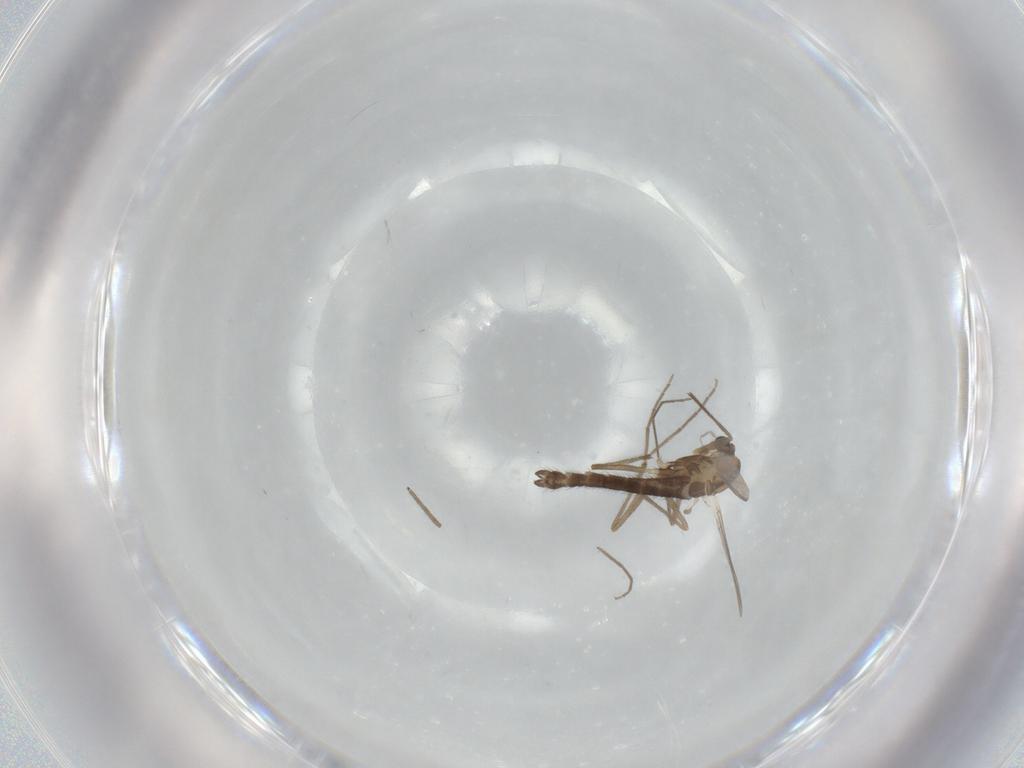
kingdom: Animalia
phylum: Arthropoda
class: Insecta
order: Diptera
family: Chironomidae
